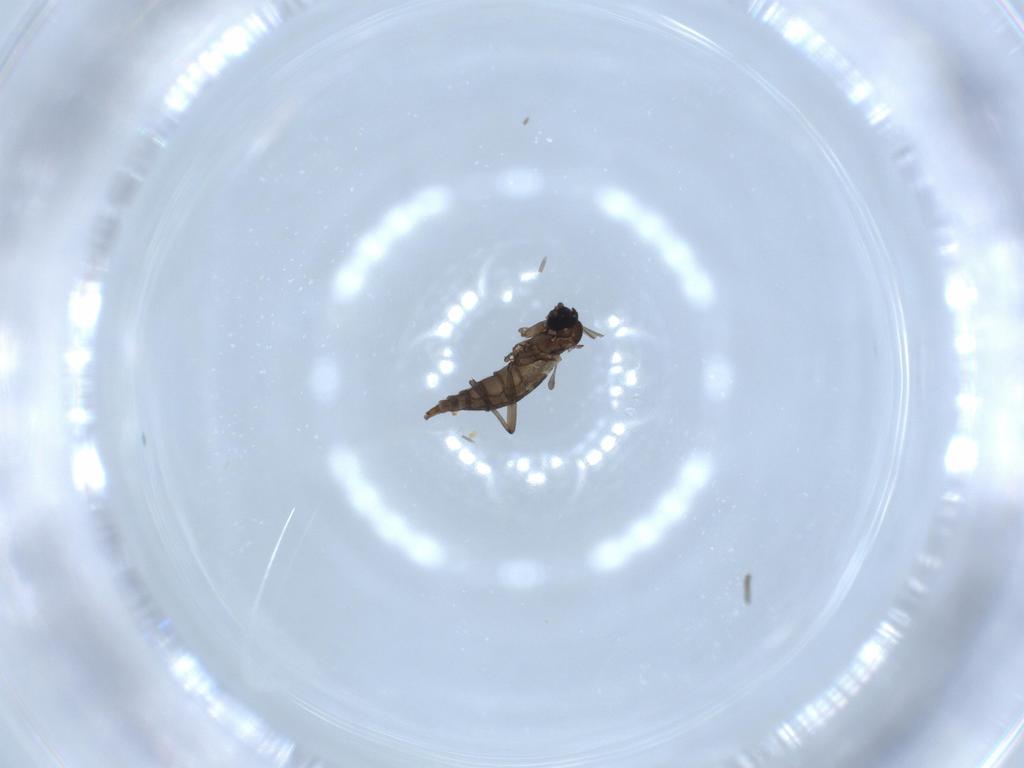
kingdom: Animalia
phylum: Arthropoda
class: Insecta
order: Diptera
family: Sciaridae
